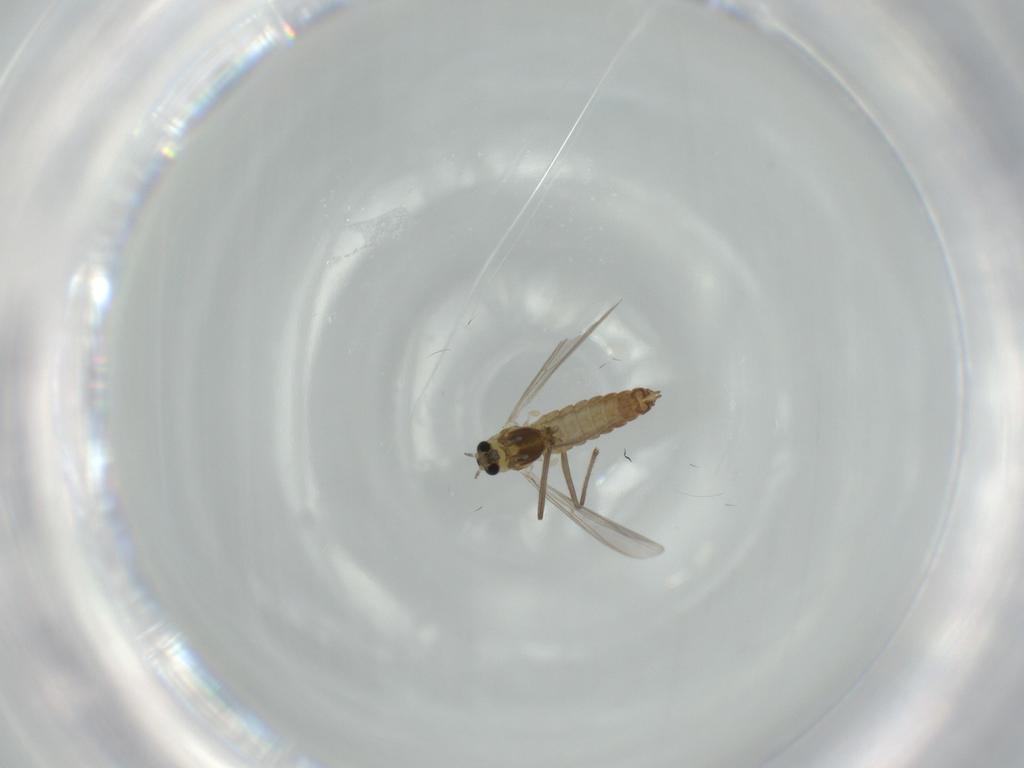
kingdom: Animalia
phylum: Arthropoda
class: Insecta
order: Diptera
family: Chironomidae
